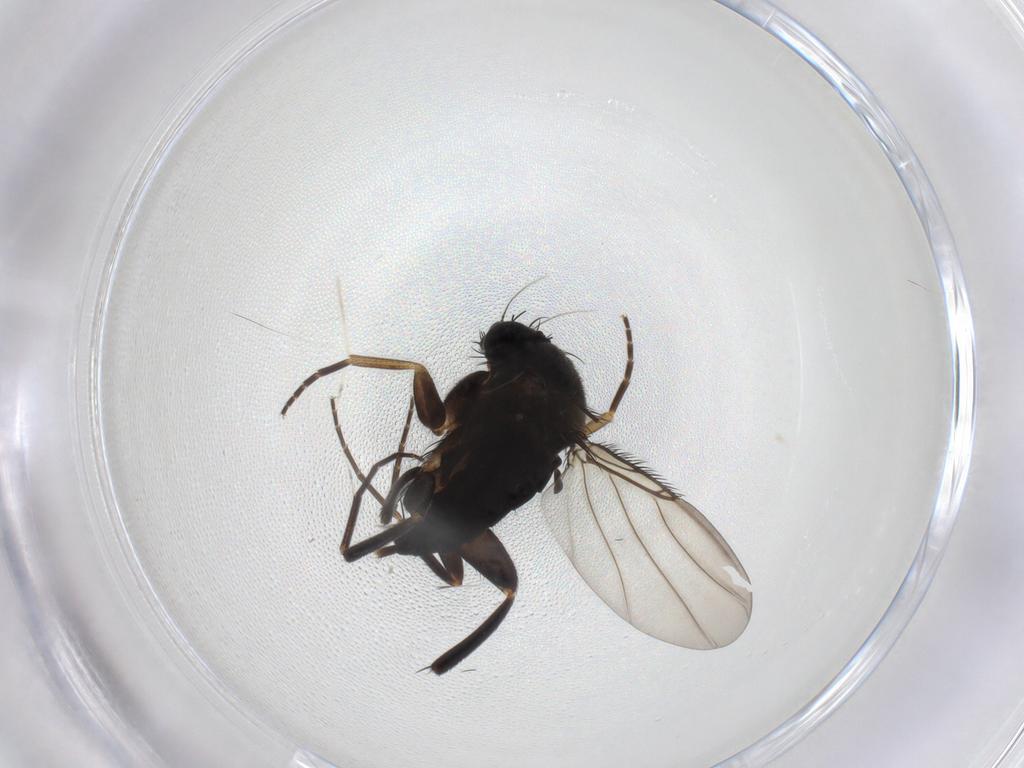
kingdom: Animalia
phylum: Arthropoda
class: Insecta
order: Diptera
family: Phoridae
